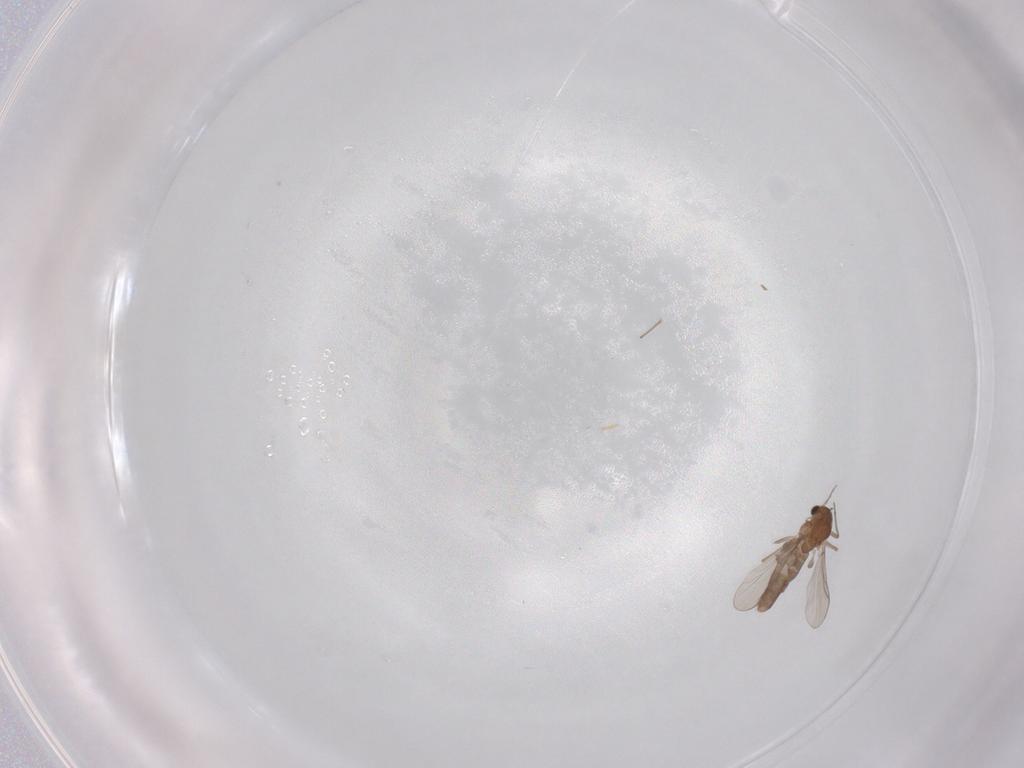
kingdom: Animalia
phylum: Arthropoda
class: Insecta
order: Diptera
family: Chironomidae
